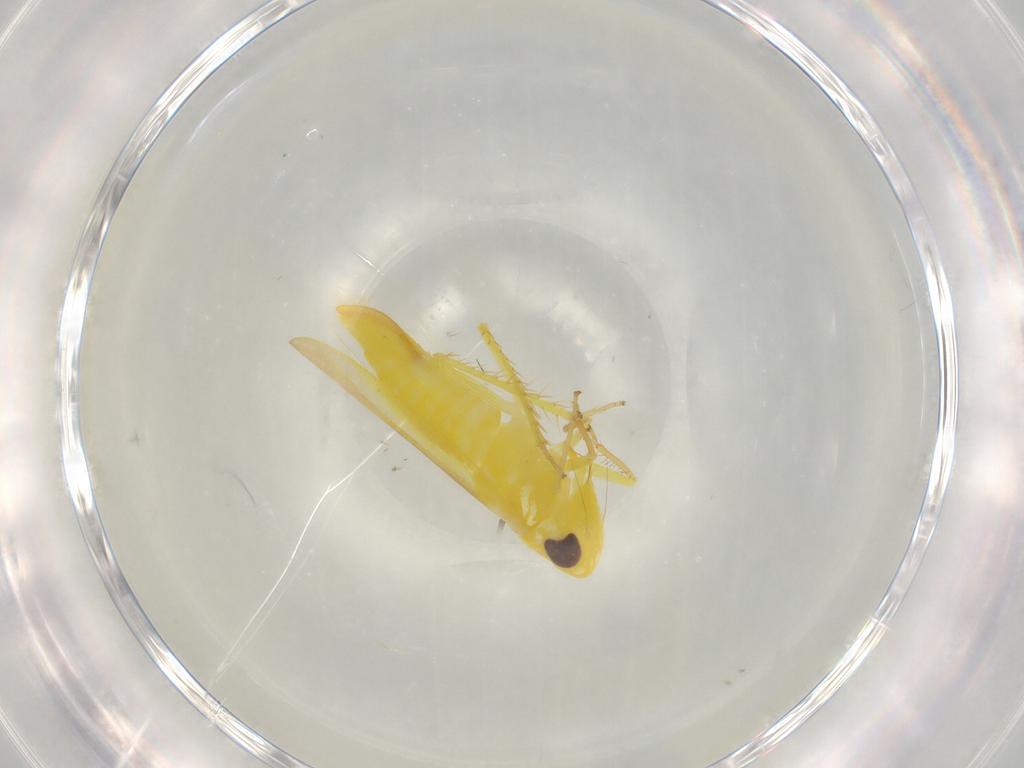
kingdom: Animalia
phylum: Arthropoda
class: Insecta
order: Hemiptera
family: Cicadellidae
